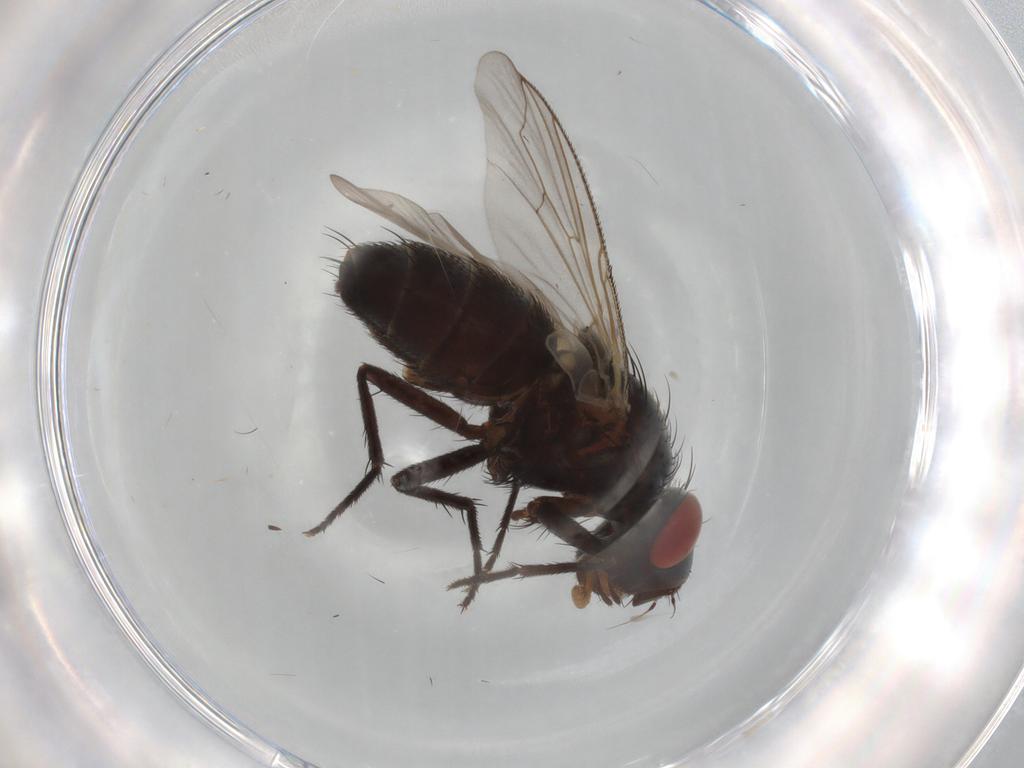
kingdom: Animalia
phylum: Arthropoda
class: Insecta
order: Diptera
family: Sarcophagidae
